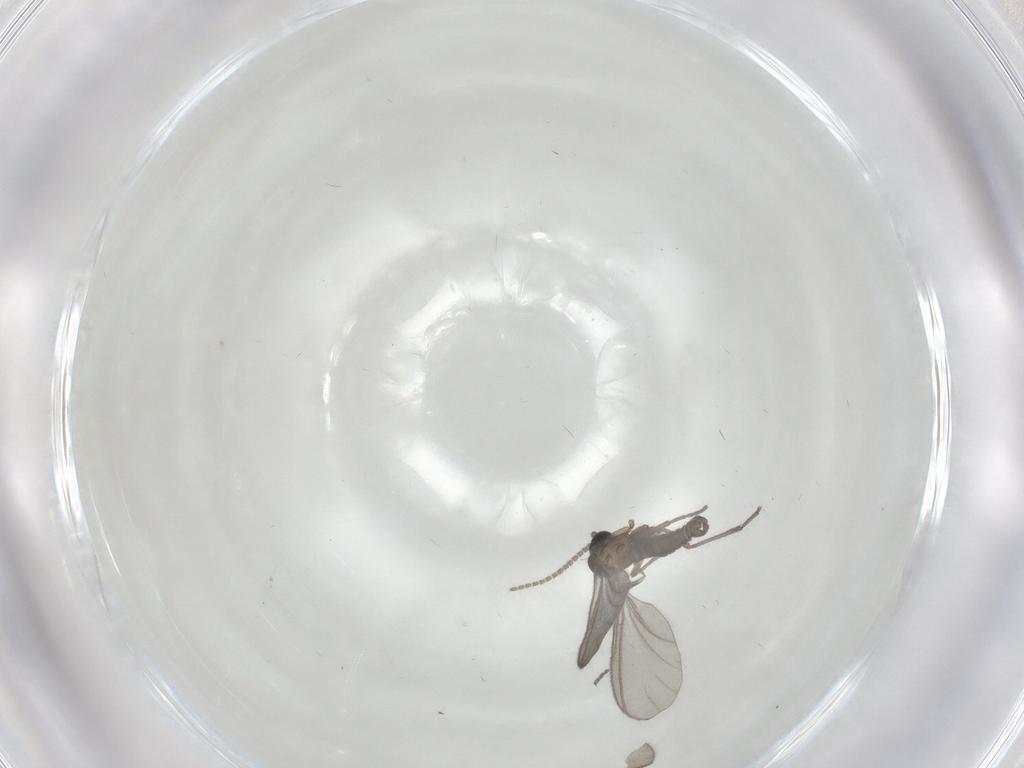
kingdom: Animalia
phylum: Arthropoda
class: Insecta
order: Diptera
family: Sciaridae
